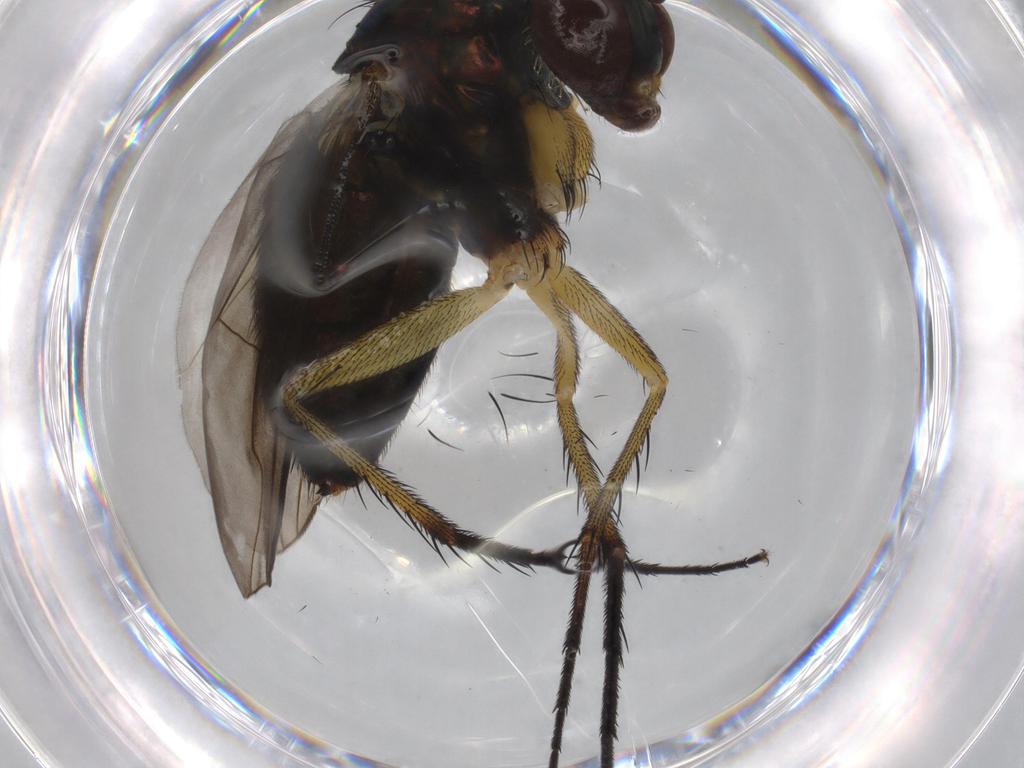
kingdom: Animalia
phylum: Arthropoda
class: Insecta
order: Diptera
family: Dolichopodidae
